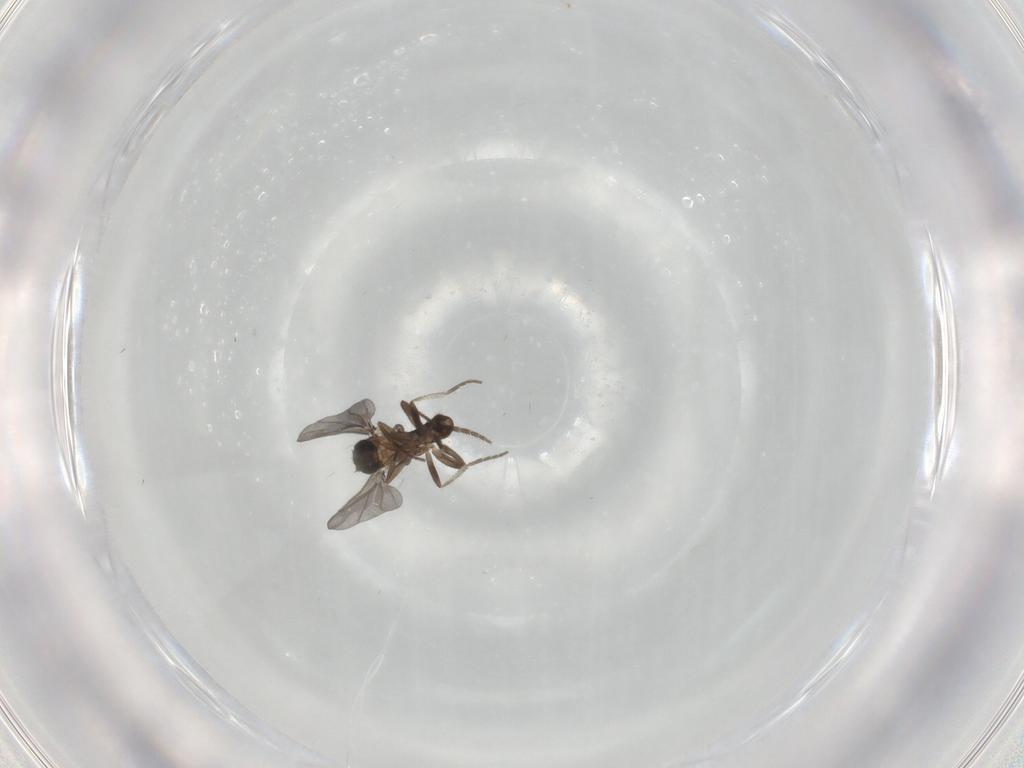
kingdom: Animalia
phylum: Arthropoda
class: Insecta
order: Diptera
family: Phoridae
